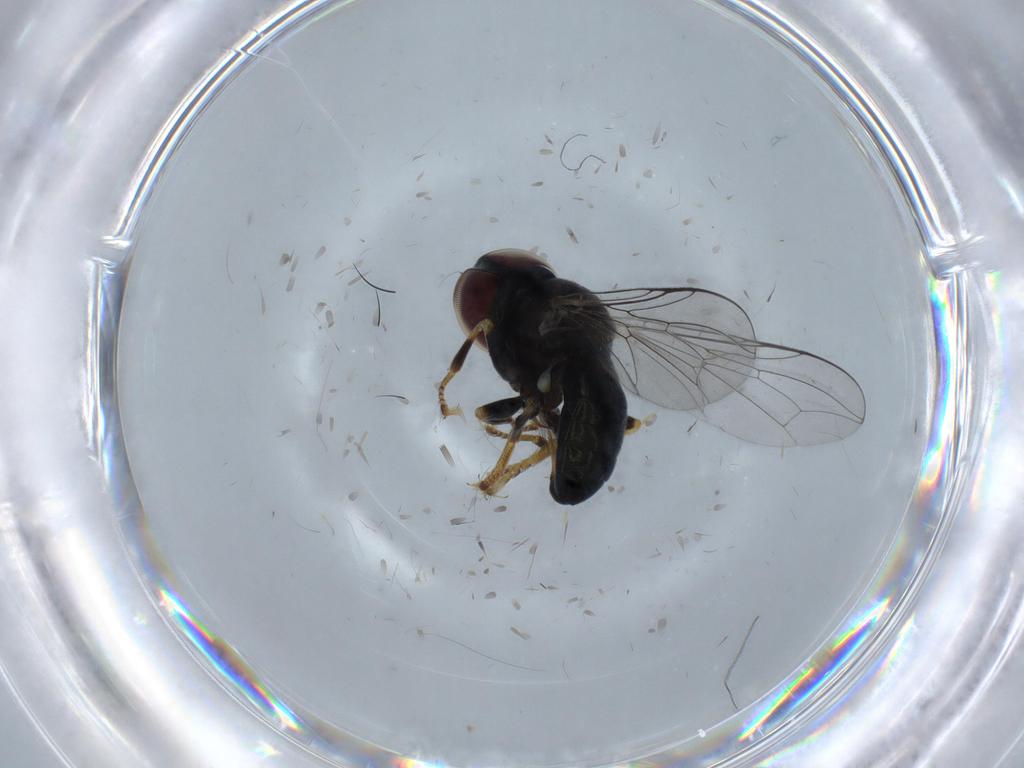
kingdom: Animalia
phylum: Arthropoda
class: Insecta
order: Diptera
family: Pipunculidae
